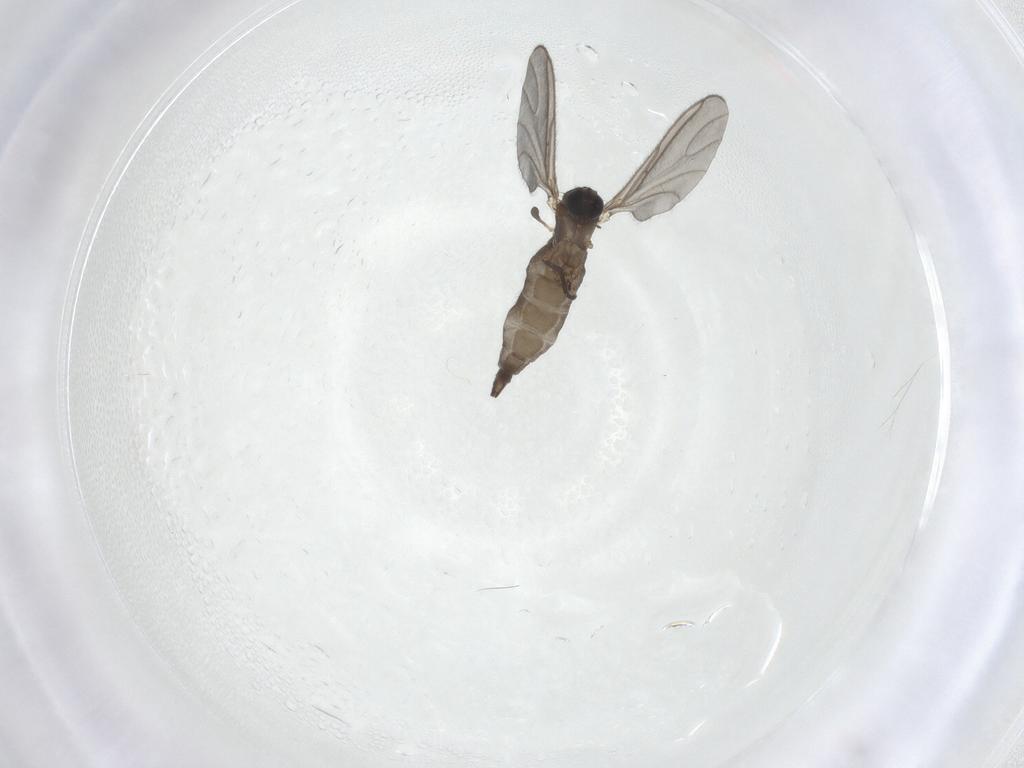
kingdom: Animalia
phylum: Arthropoda
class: Insecta
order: Diptera
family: Sciaridae
